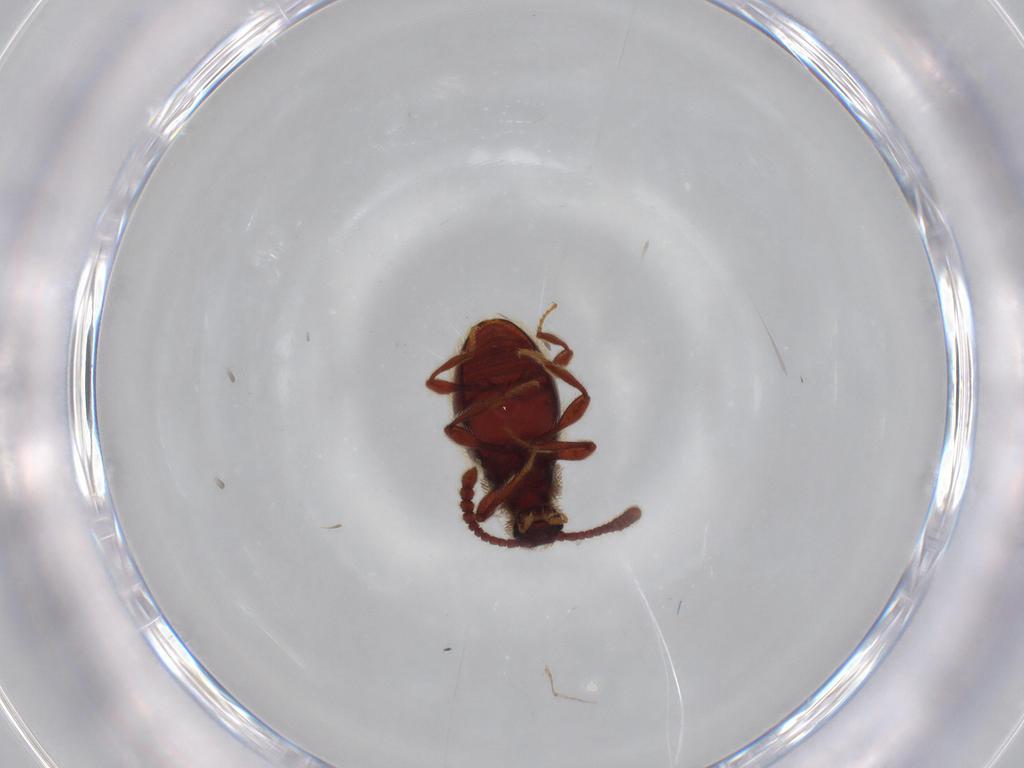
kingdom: Animalia
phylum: Arthropoda
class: Insecta
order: Coleoptera
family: Staphylinidae
